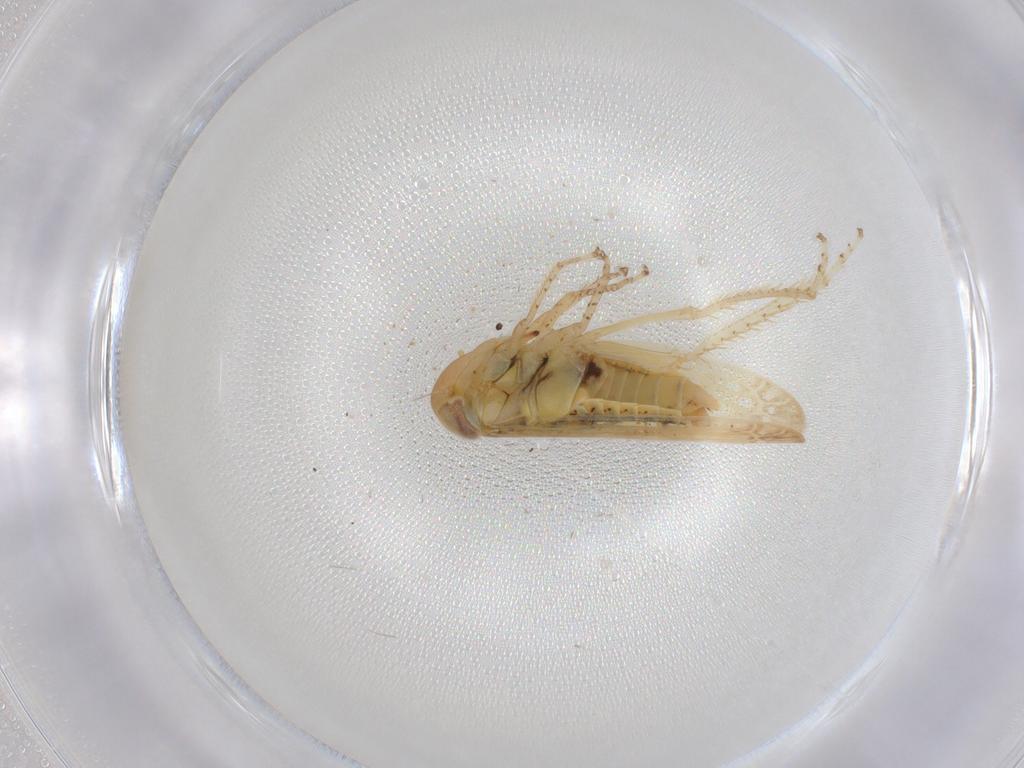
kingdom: Animalia
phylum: Arthropoda
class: Insecta
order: Hemiptera
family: Cicadellidae
